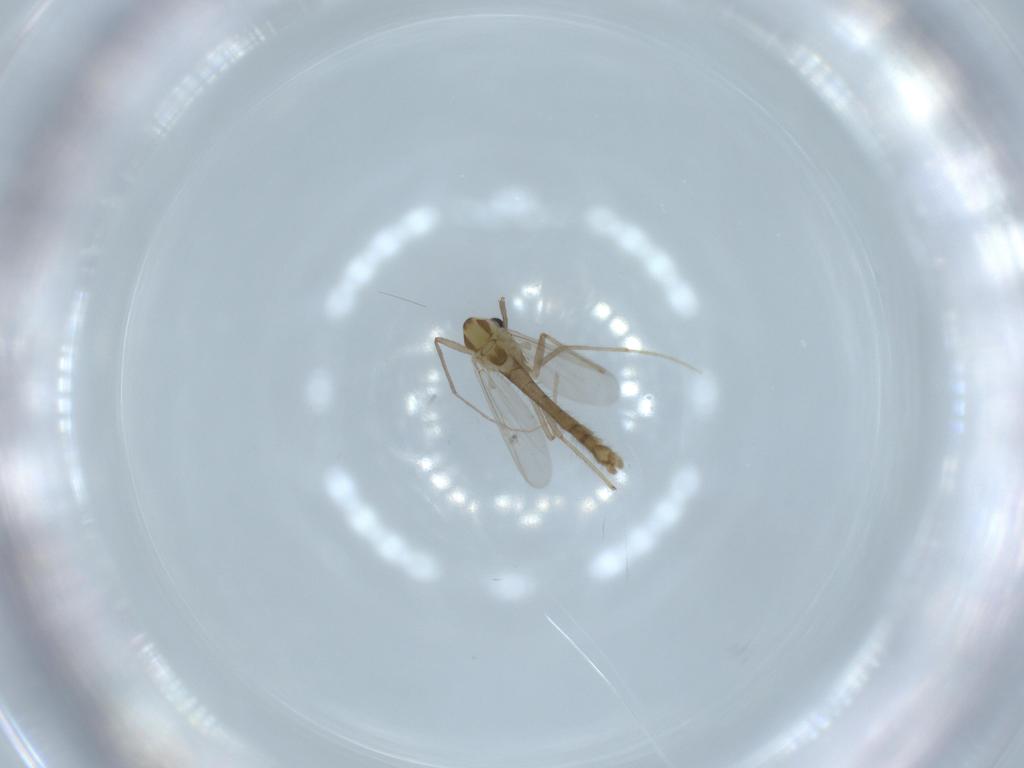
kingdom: Animalia
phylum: Arthropoda
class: Insecta
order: Diptera
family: Chironomidae
